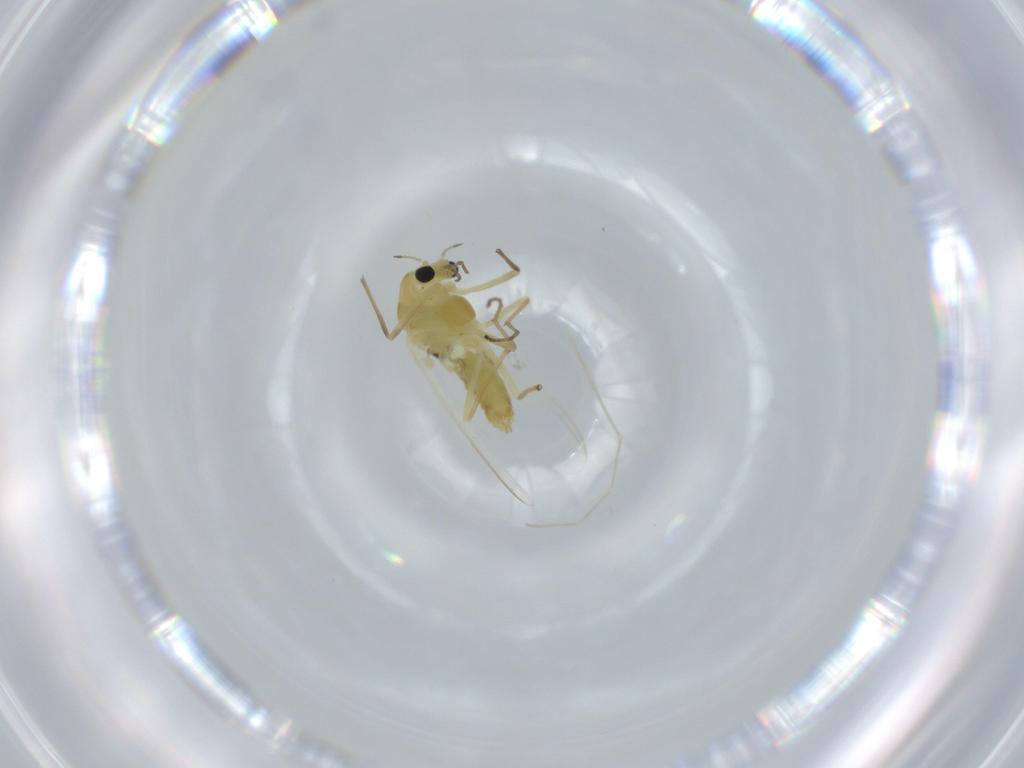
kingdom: Animalia
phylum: Arthropoda
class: Insecta
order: Diptera
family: Chironomidae
